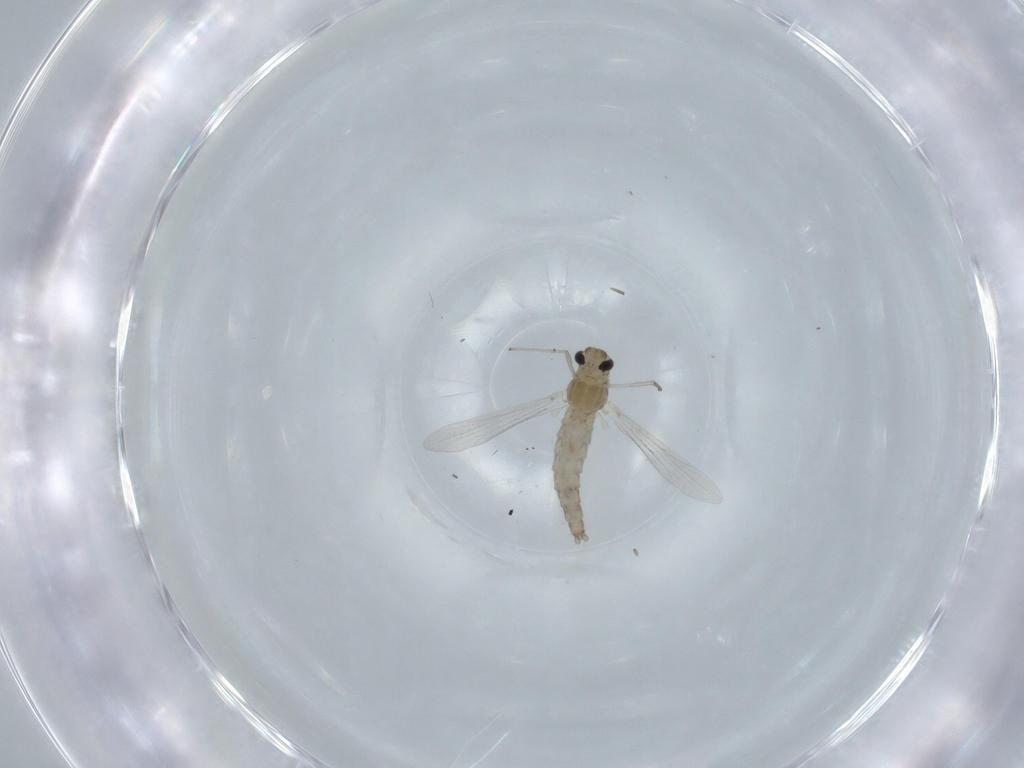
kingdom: Animalia
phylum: Arthropoda
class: Insecta
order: Diptera
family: Chironomidae
